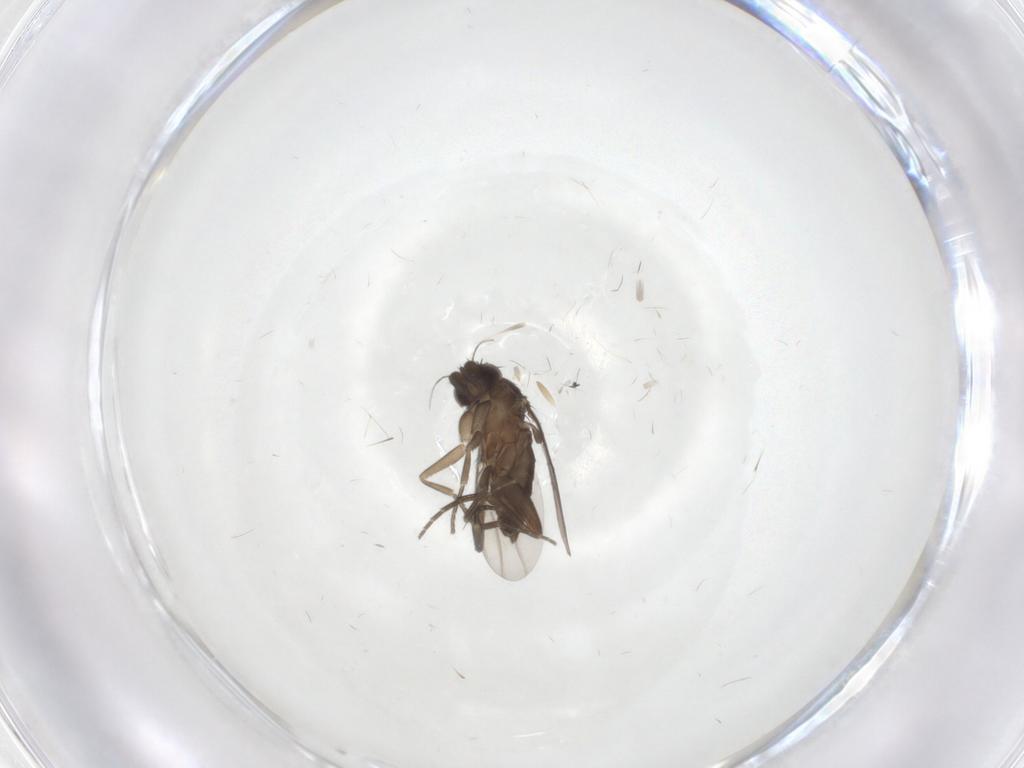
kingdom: Animalia
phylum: Arthropoda
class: Insecta
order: Diptera
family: Phoridae
